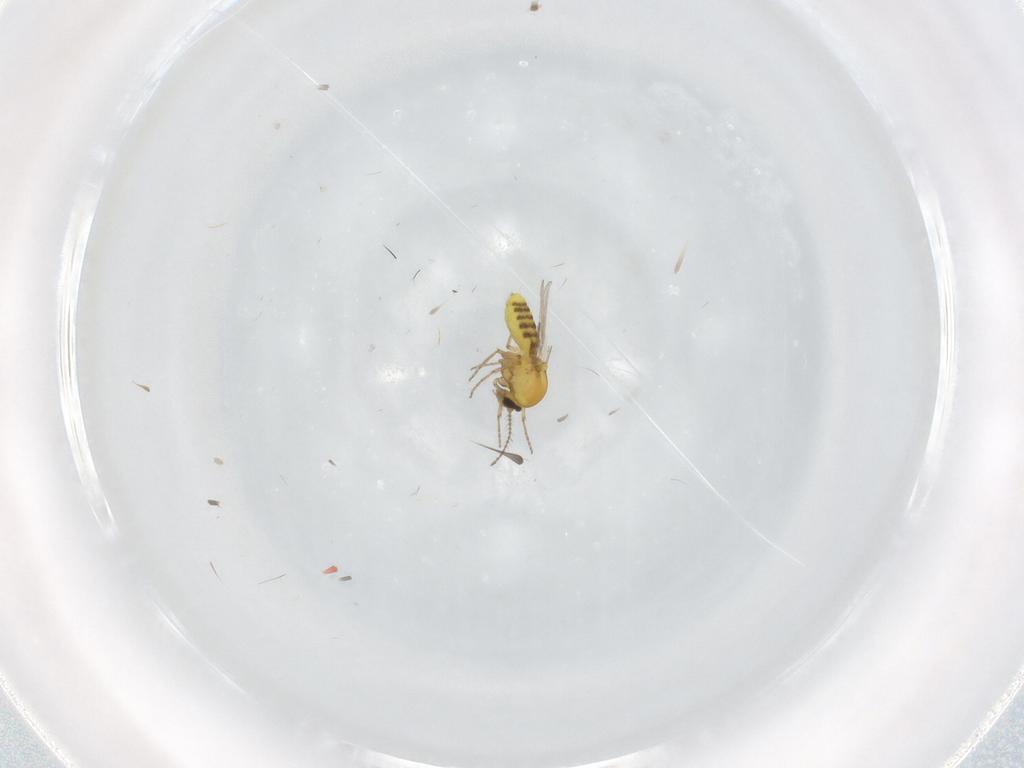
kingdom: Animalia
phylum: Arthropoda
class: Insecta
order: Diptera
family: Ceratopogonidae
